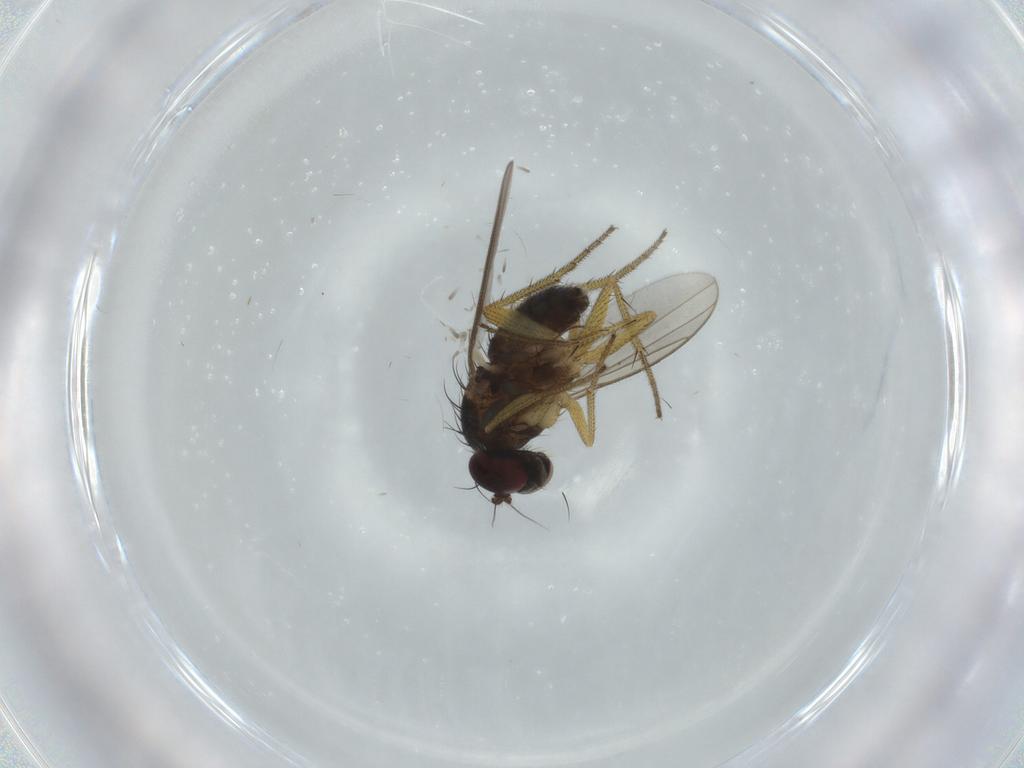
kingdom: Animalia
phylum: Arthropoda
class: Insecta
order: Diptera
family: Dolichopodidae
